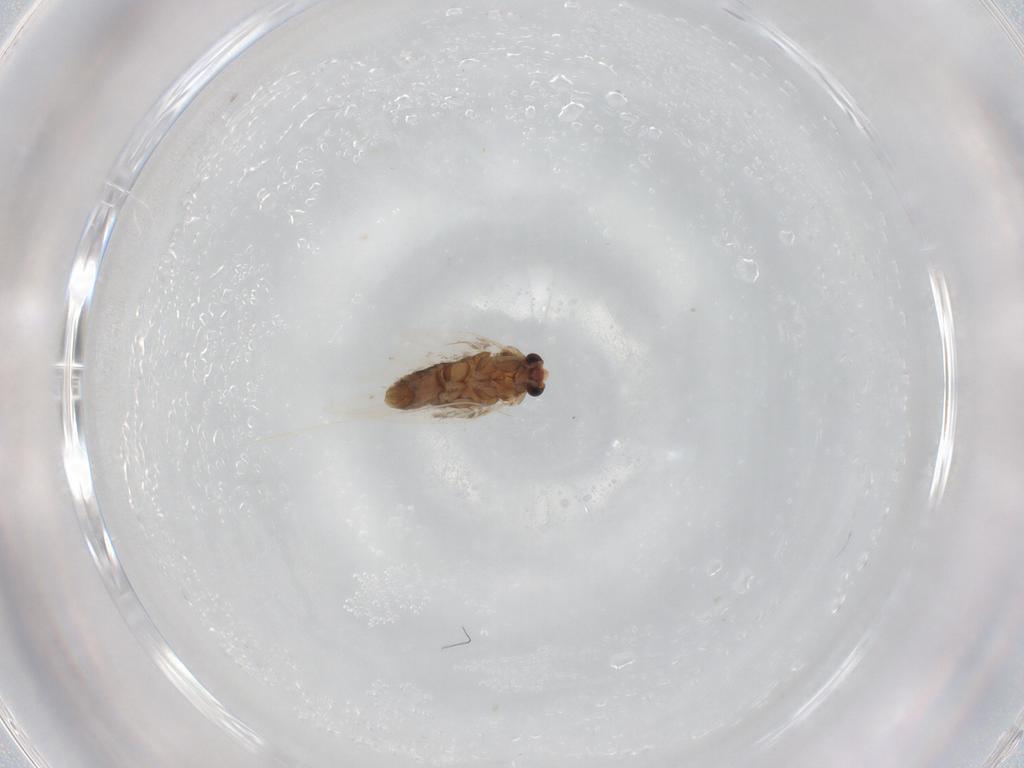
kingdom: Animalia
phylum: Arthropoda
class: Insecta
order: Lepidoptera
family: Nepticulidae
